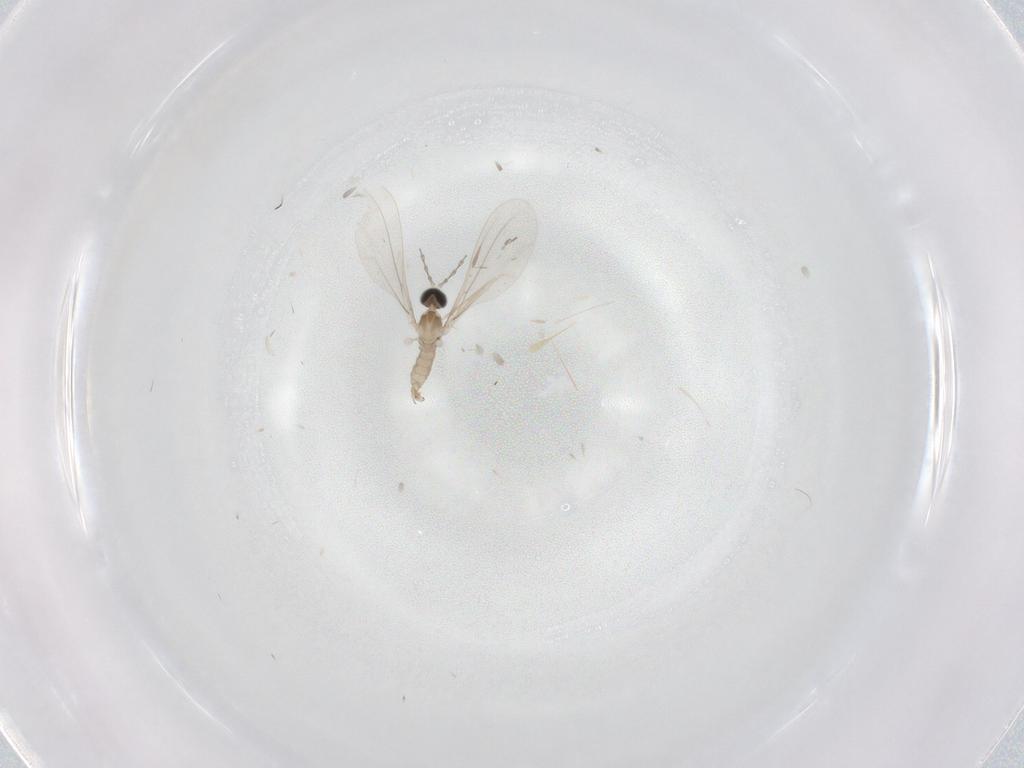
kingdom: Animalia
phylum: Arthropoda
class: Insecta
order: Diptera
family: Cecidomyiidae
